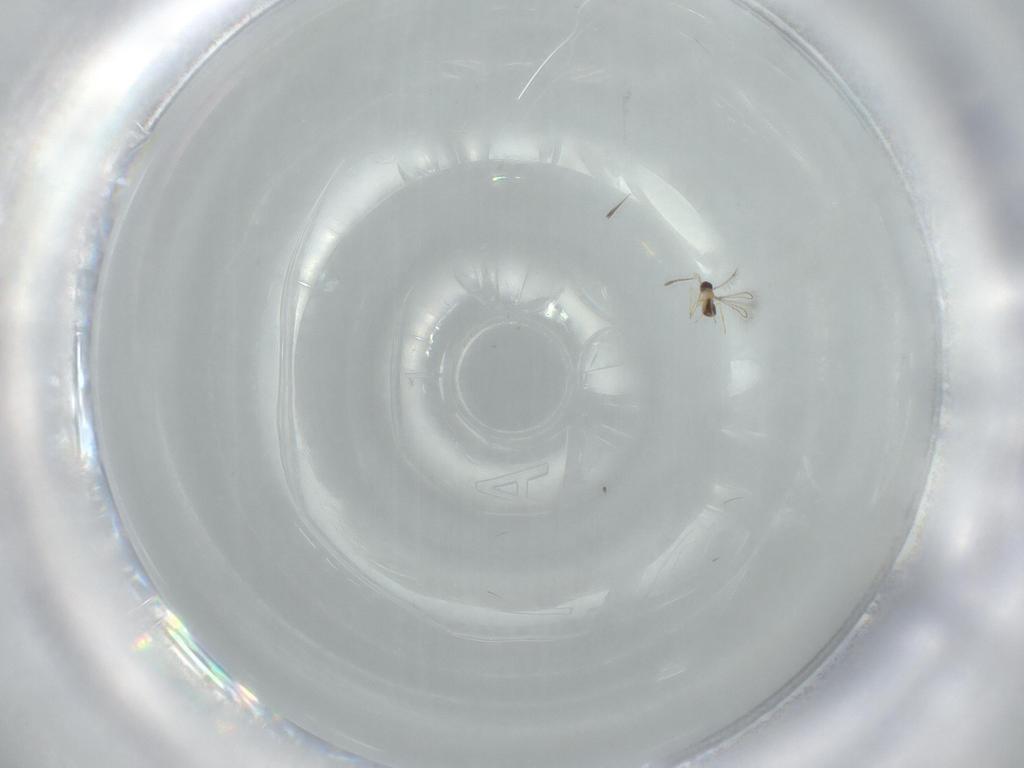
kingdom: Animalia
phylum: Arthropoda
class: Insecta
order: Hymenoptera
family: Mymaridae
